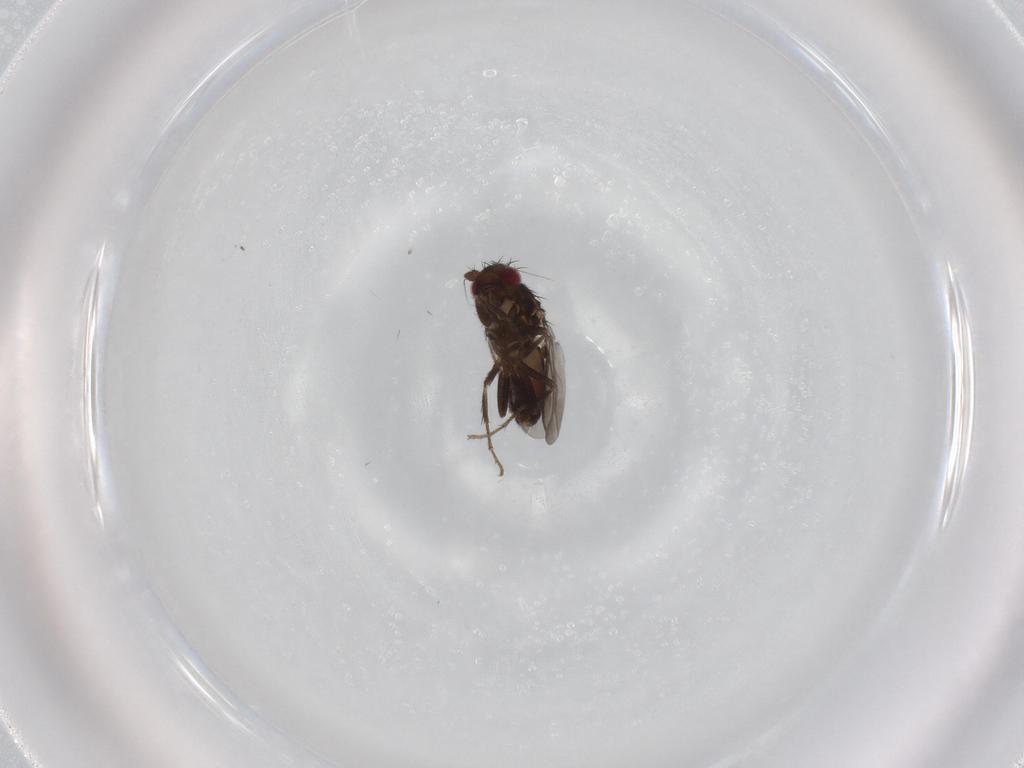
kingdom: Animalia
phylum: Arthropoda
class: Insecta
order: Diptera
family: Sphaeroceridae
